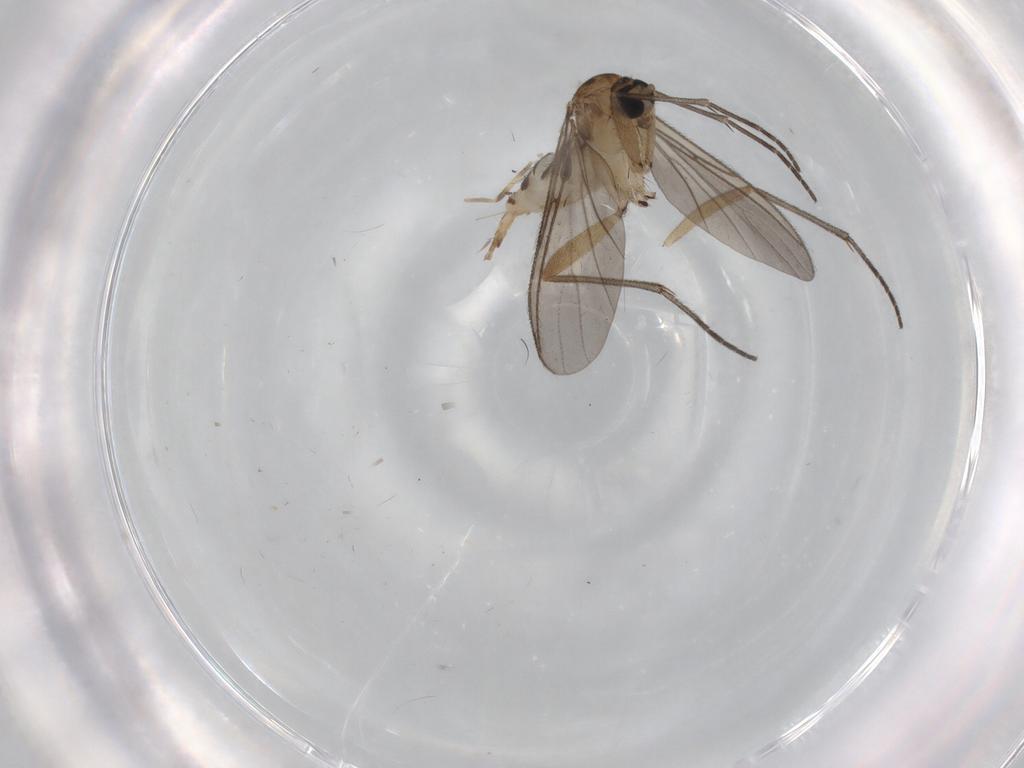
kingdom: Animalia
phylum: Arthropoda
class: Insecta
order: Diptera
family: Sciaridae
